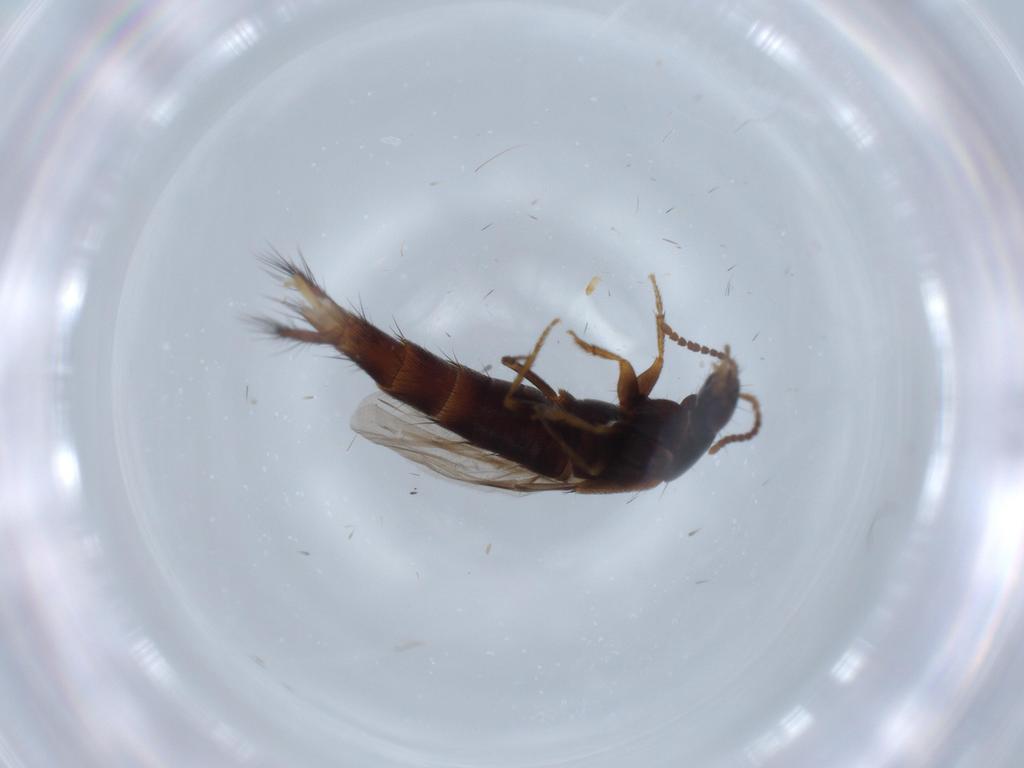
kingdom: Animalia
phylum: Arthropoda
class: Insecta
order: Coleoptera
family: Staphylinidae
